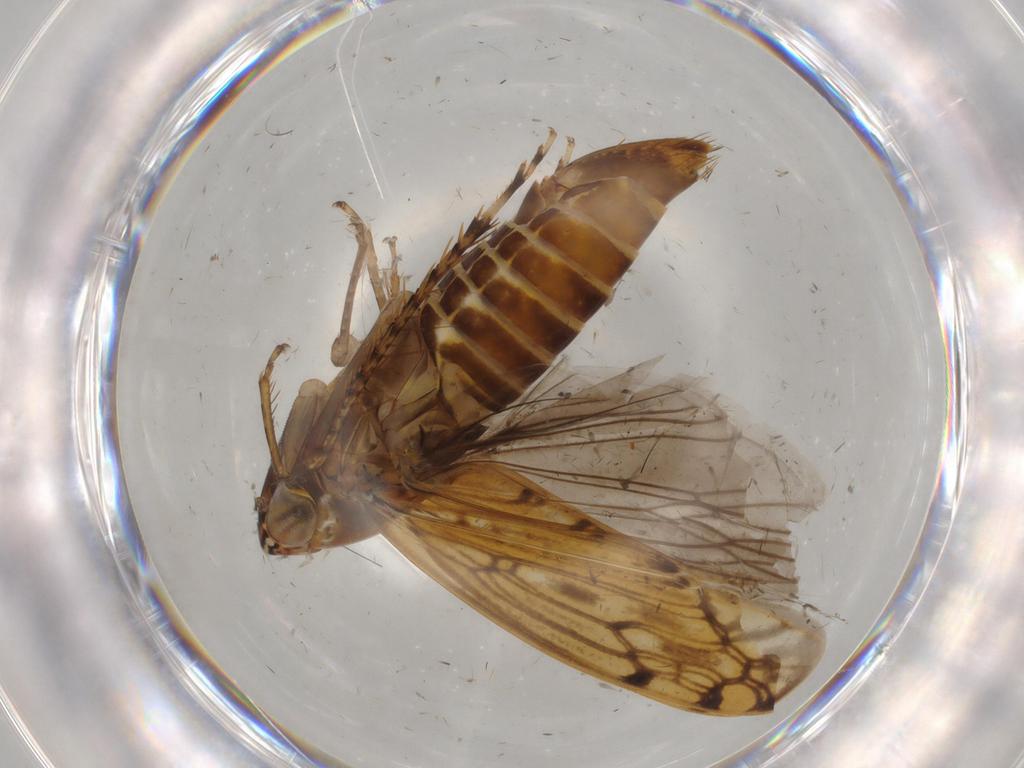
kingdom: Animalia
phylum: Arthropoda
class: Insecta
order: Hemiptera
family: Cicadellidae
